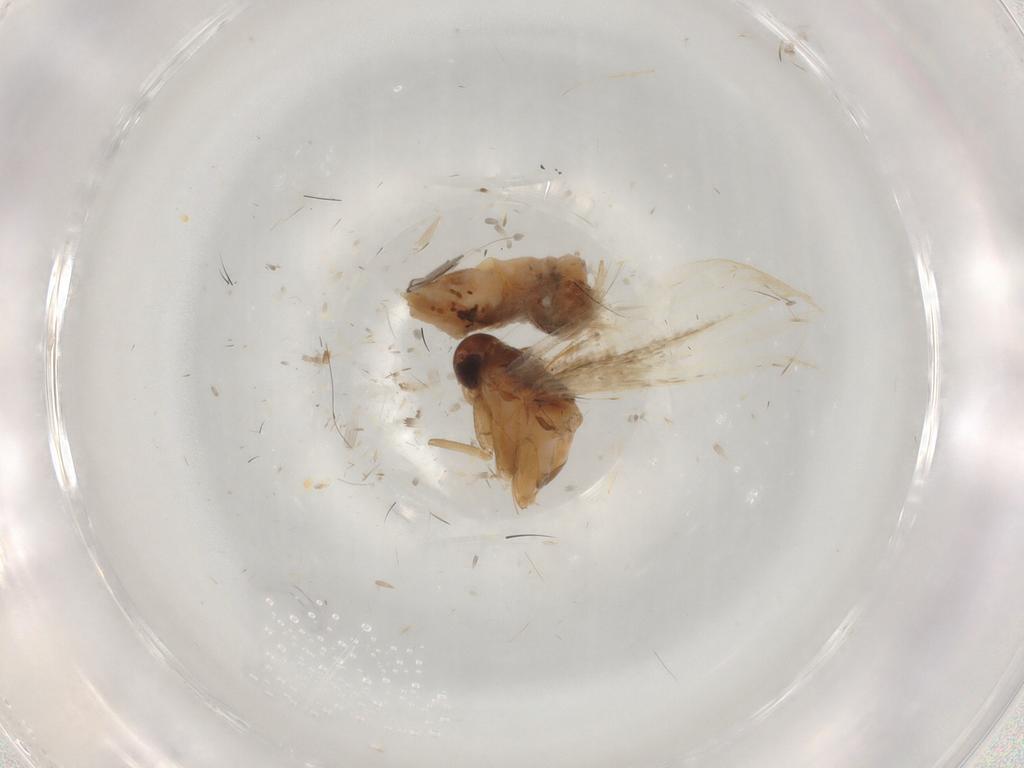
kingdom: Animalia
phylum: Arthropoda
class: Insecta
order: Lepidoptera
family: Cosmopterigidae
